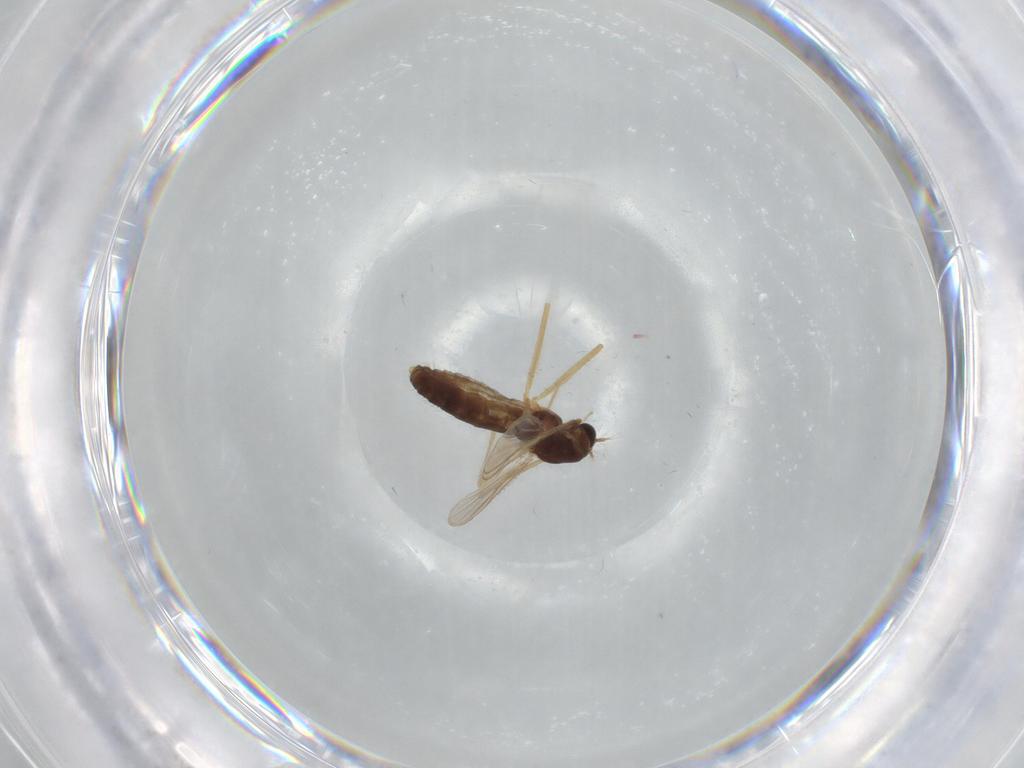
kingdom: Animalia
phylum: Arthropoda
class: Insecta
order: Diptera
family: Chironomidae
